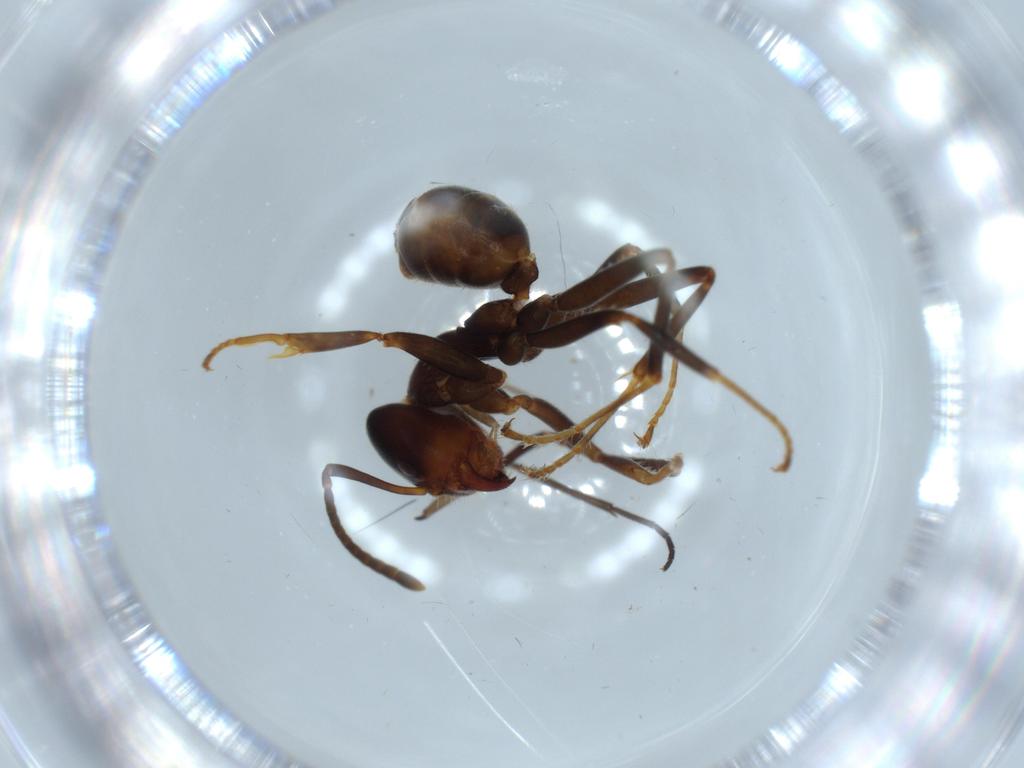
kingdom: Animalia
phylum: Arthropoda
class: Insecta
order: Hymenoptera
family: Formicidae
